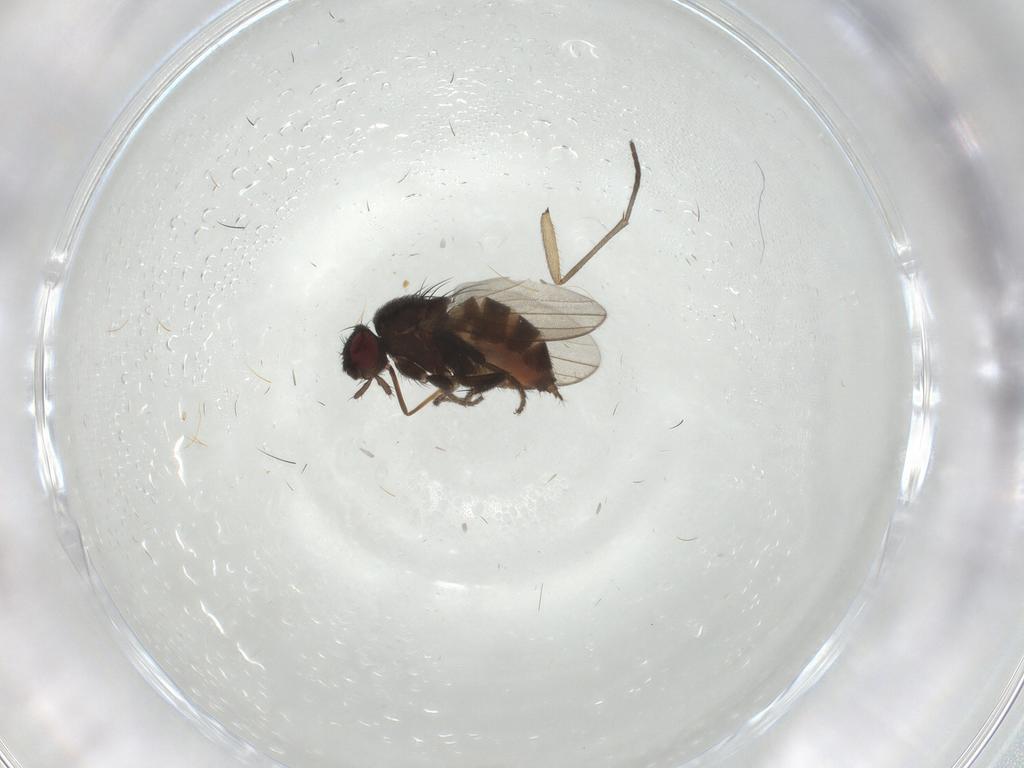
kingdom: Animalia
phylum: Arthropoda
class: Insecta
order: Diptera
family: Milichiidae
